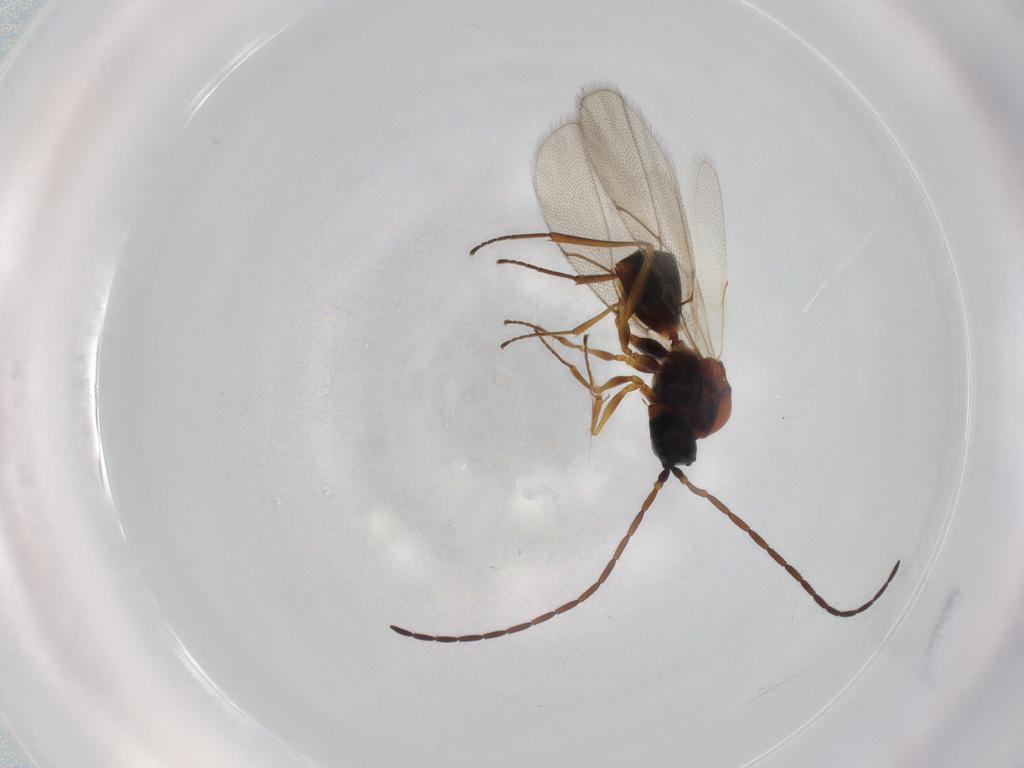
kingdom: Animalia
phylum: Arthropoda
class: Insecta
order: Hymenoptera
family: Figitidae
